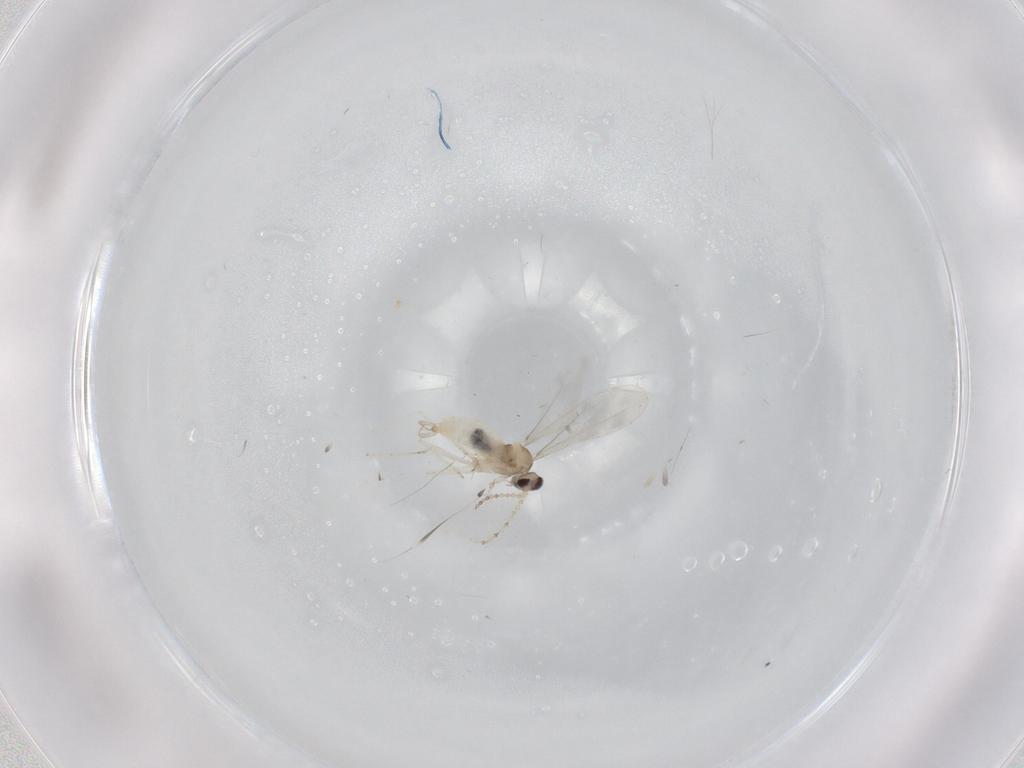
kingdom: Animalia
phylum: Arthropoda
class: Insecta
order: Diptera
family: Cecidomyiidae
